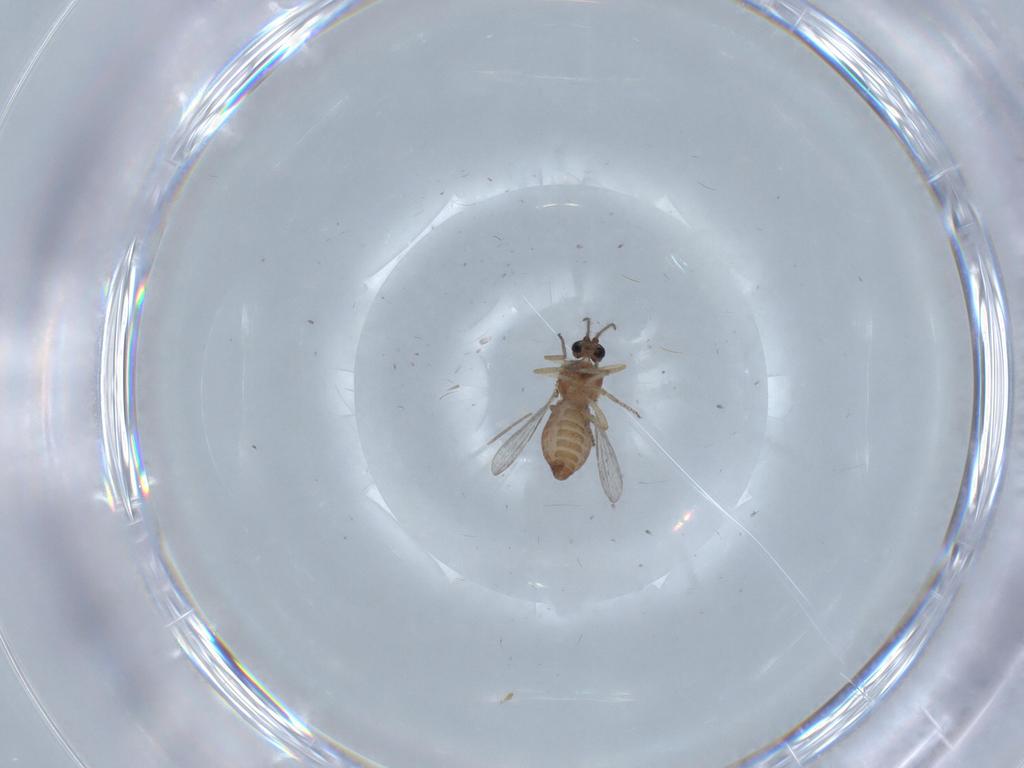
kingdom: Animalia
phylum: Arthropoda
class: Insecta
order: Diptera
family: Ceratopogonidae
